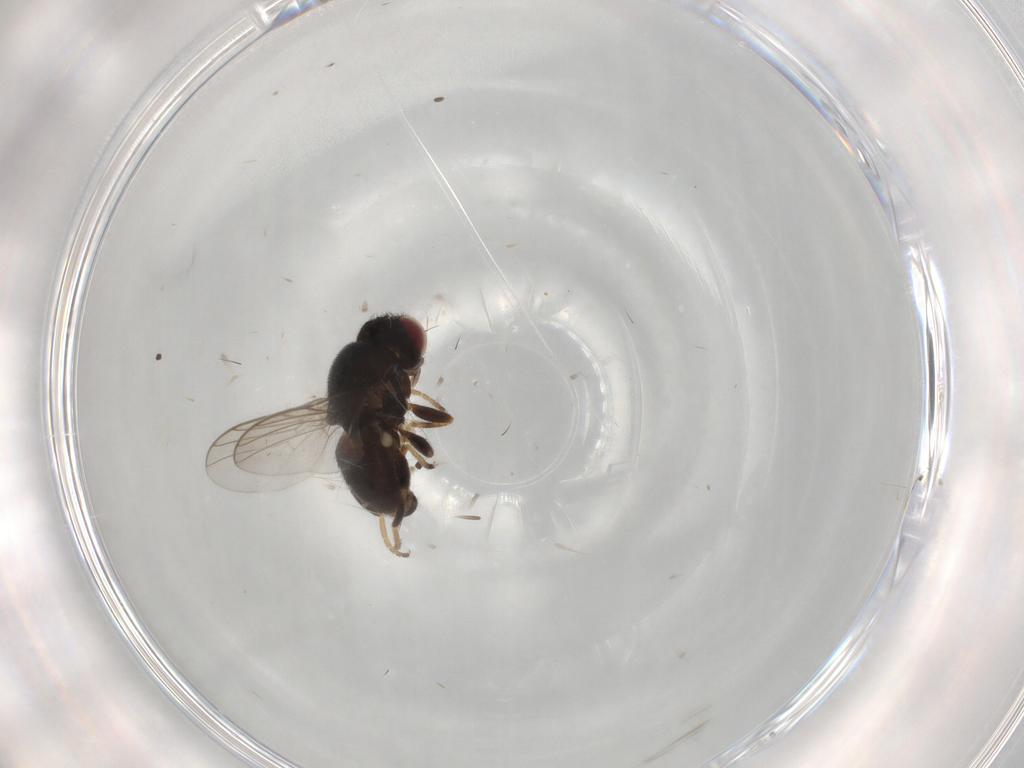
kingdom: Animalia
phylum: Arthropoda
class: Insecta
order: Diptera
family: Chloropidae
